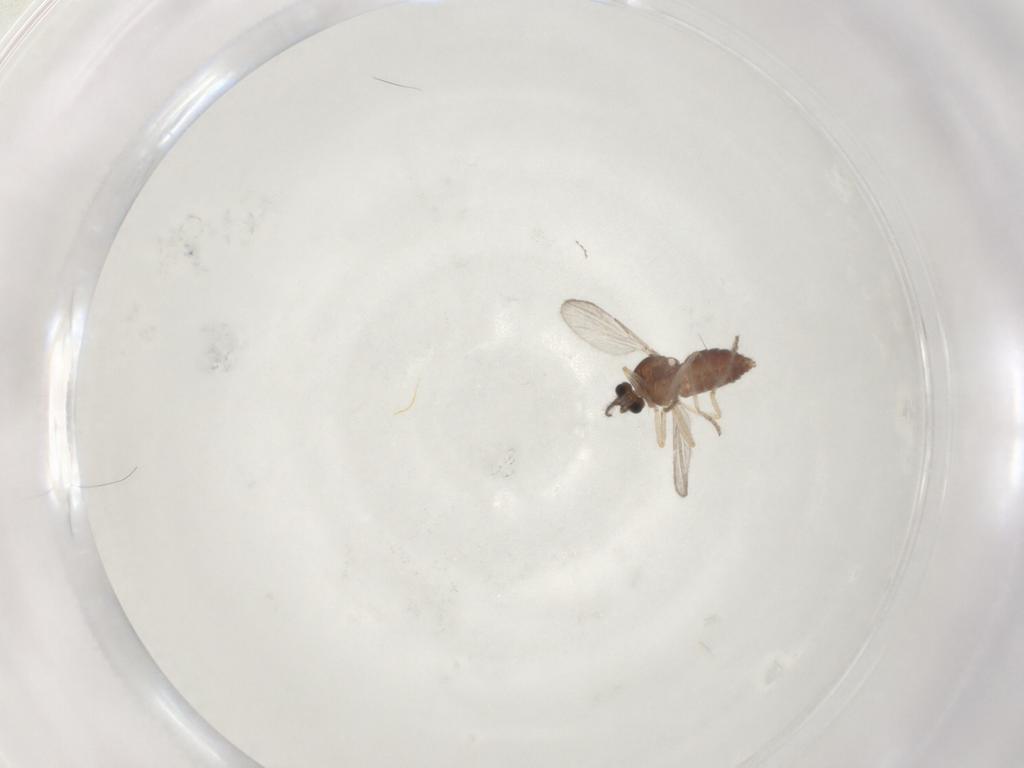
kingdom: Animalia
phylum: Arthropoda
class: Insecta
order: Diptera
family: Ceratopogonidae
